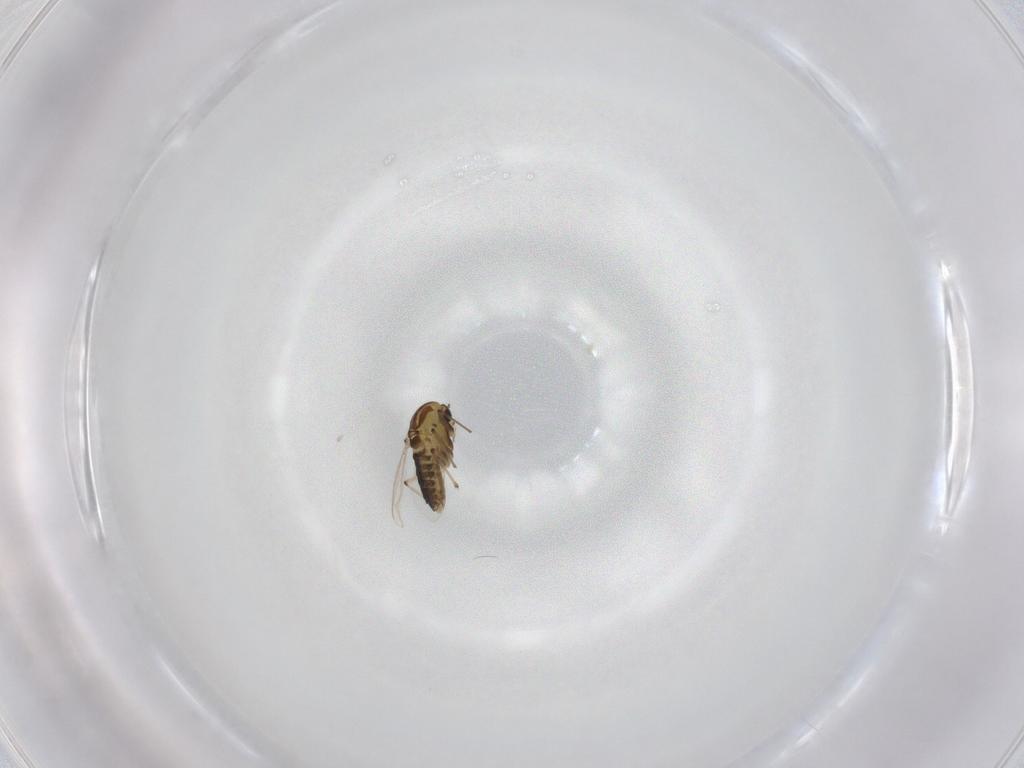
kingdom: Animalia
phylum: Arthropoda
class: Insecta
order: Diptera
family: Chironomidae
